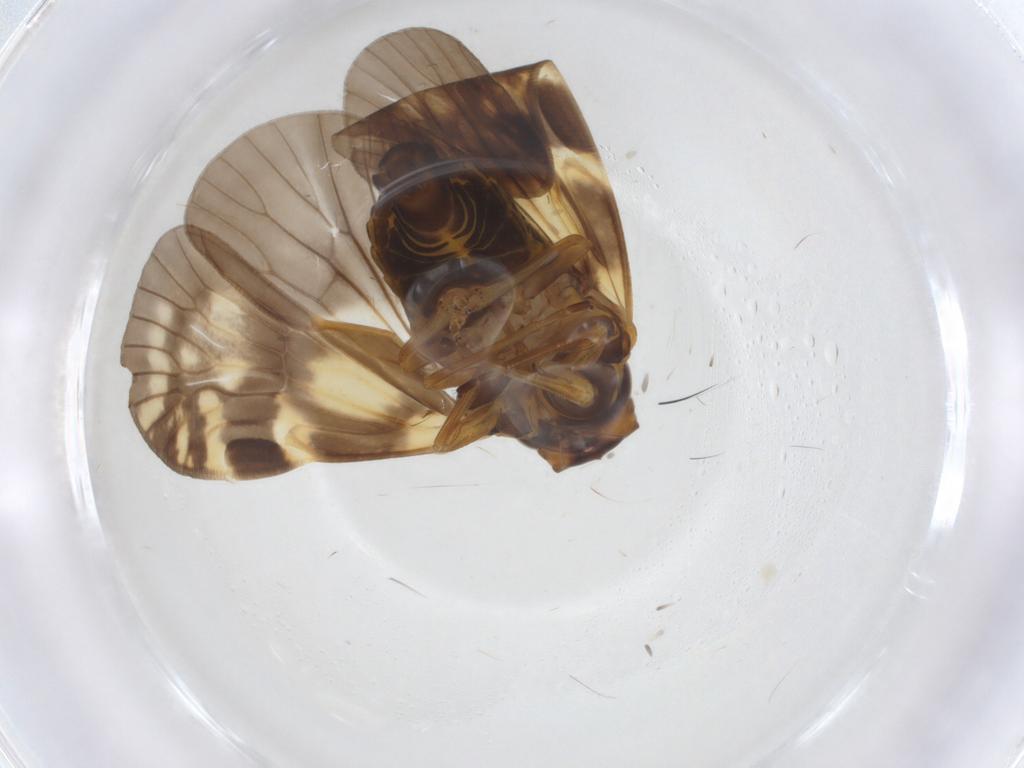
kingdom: Animalia
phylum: Arthropoda
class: Insecta
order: Hemiptera
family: Cixiidae
